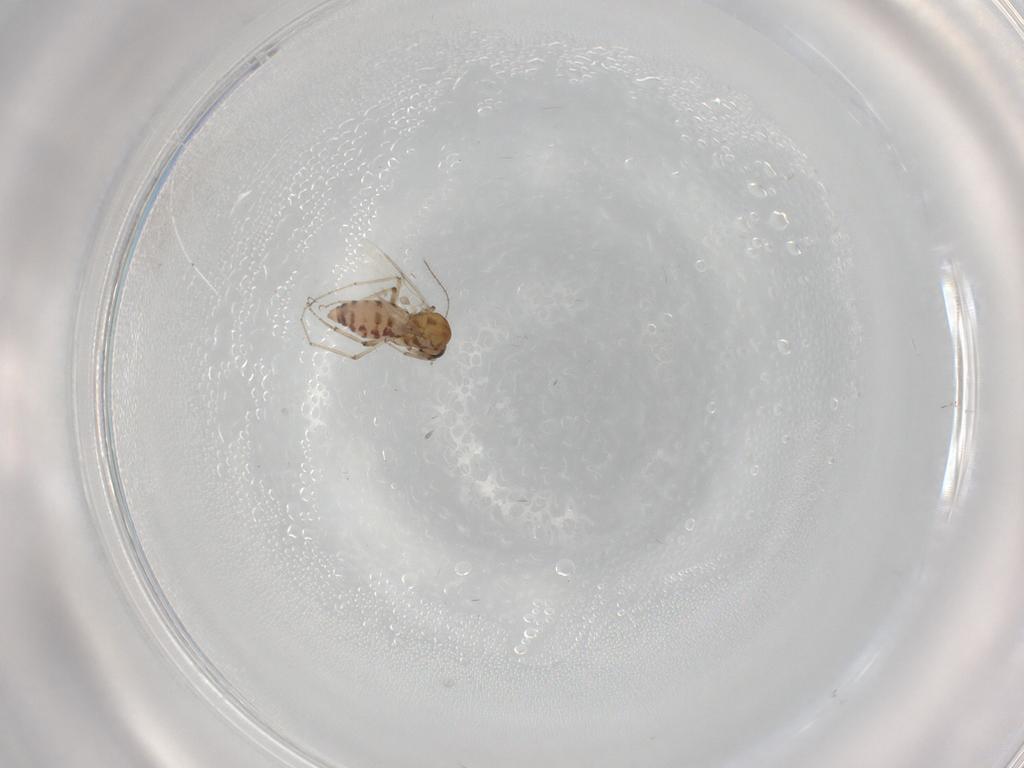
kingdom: Animalia
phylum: Arthropoda
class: Insecta
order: Diptera
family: Ceratopogonidae
